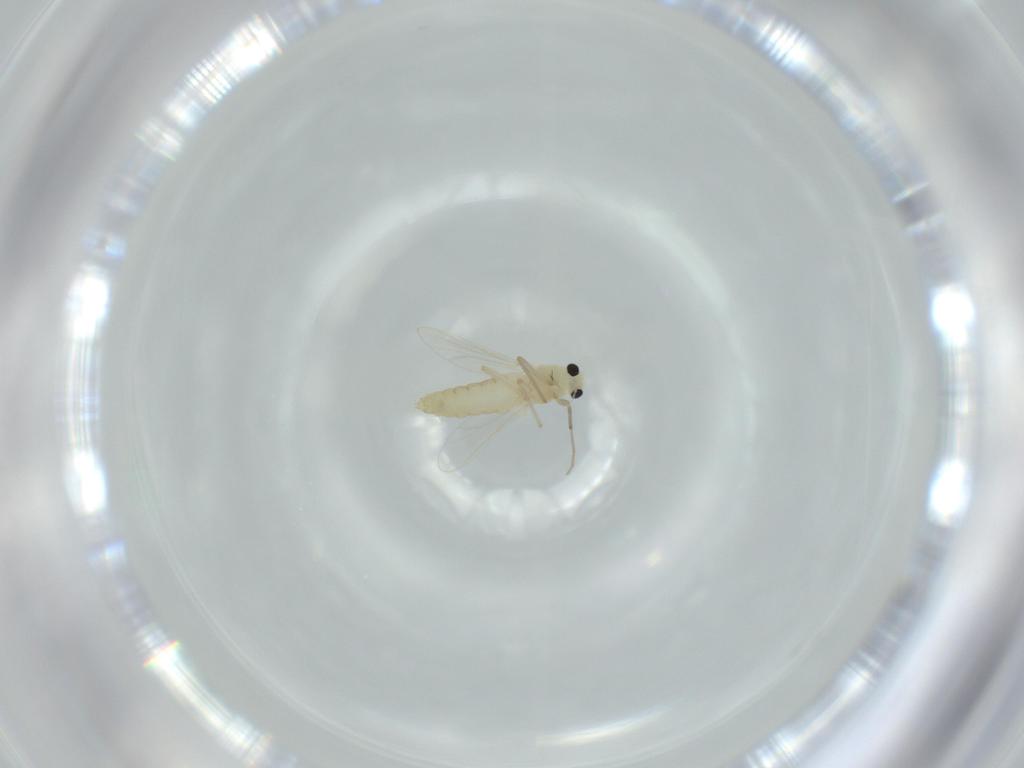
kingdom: Animalia
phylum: Arthropoda
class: Insecta
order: Diptera
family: Chironomidae
